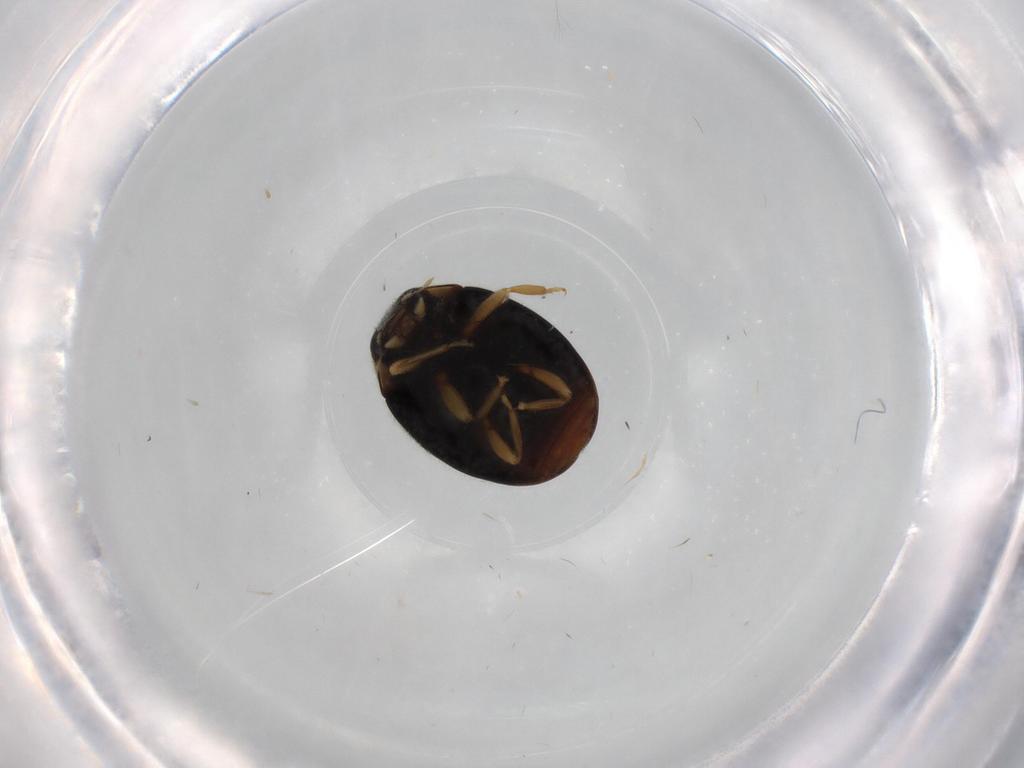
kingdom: Animalia
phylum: Arthropoda
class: Insecta
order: Coleoptera
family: Coccinellidae
